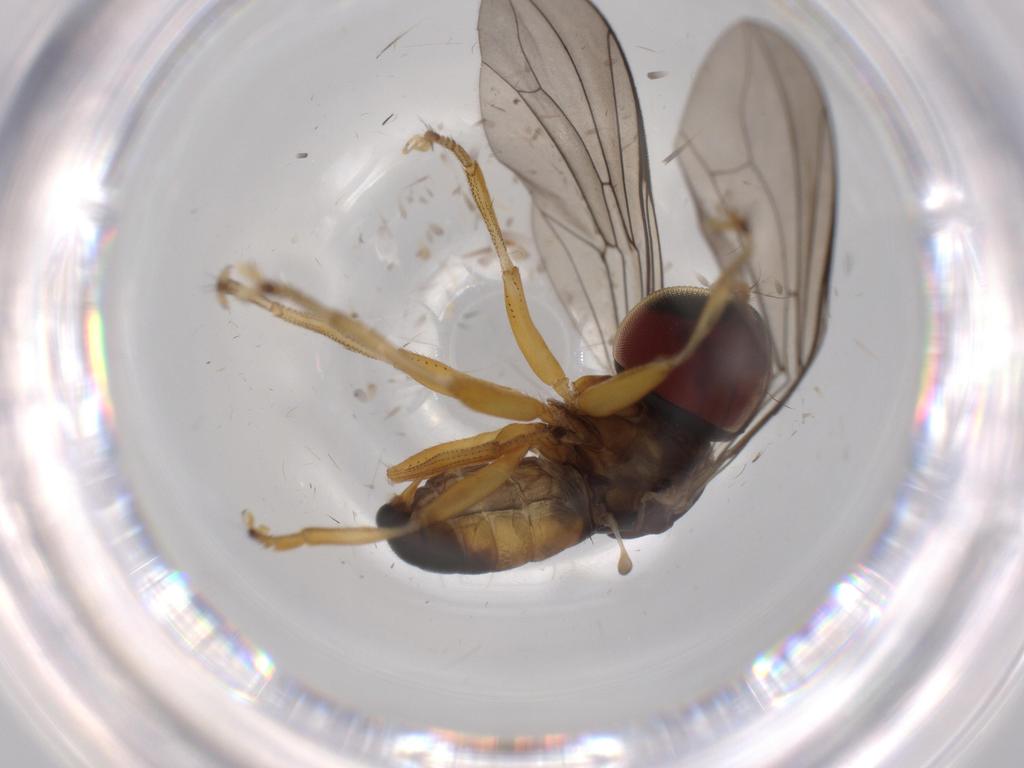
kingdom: Animalia
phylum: Arthropoda
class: Insecta
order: Diptera
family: Pipunculidae
